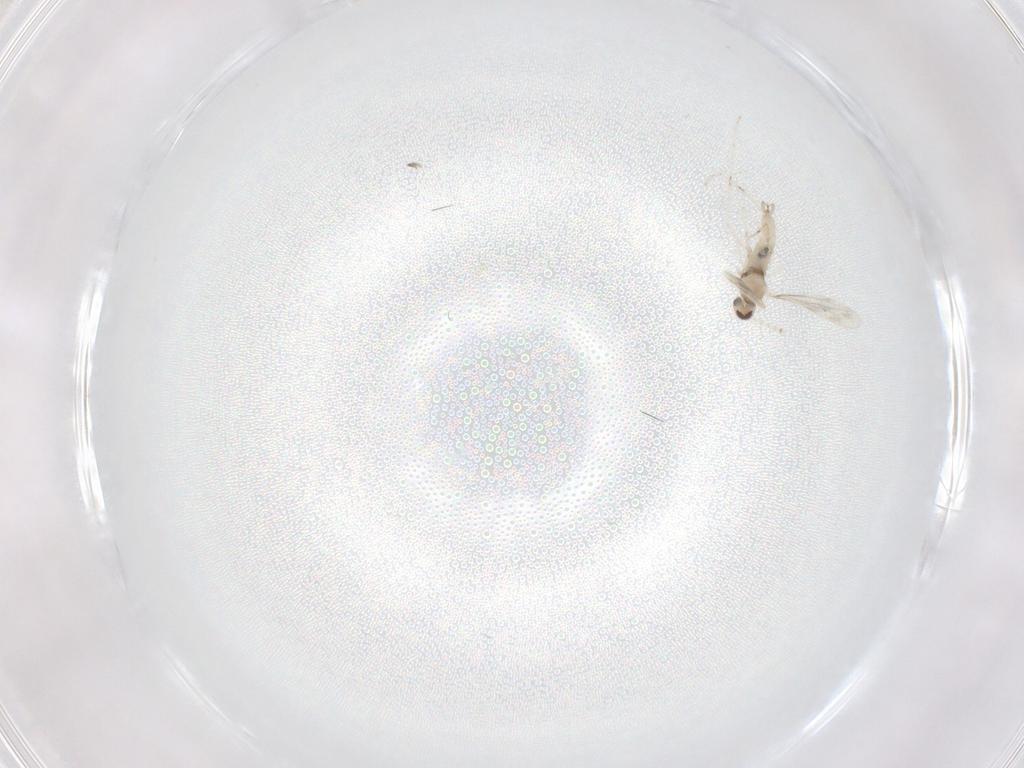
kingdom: Animalia
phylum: Arthropoda
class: Insecta
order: Diptera
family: Cecidomyiidae
